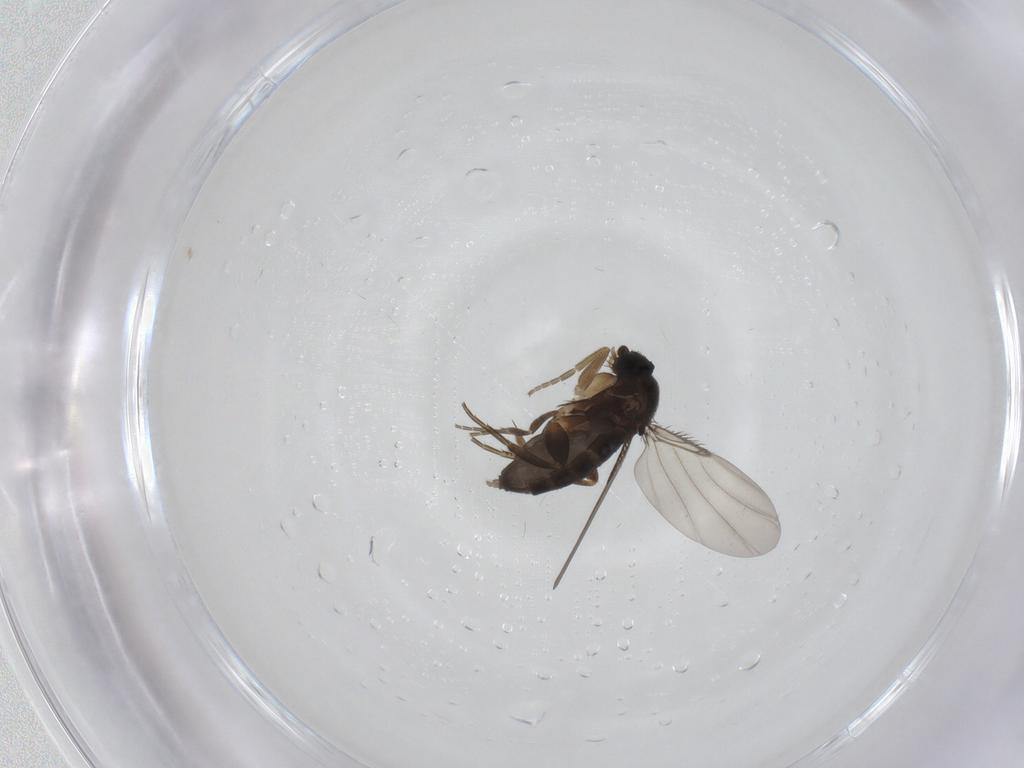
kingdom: Animalia
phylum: Arthropoda
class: Insecta
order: Diptera
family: Phoridae
